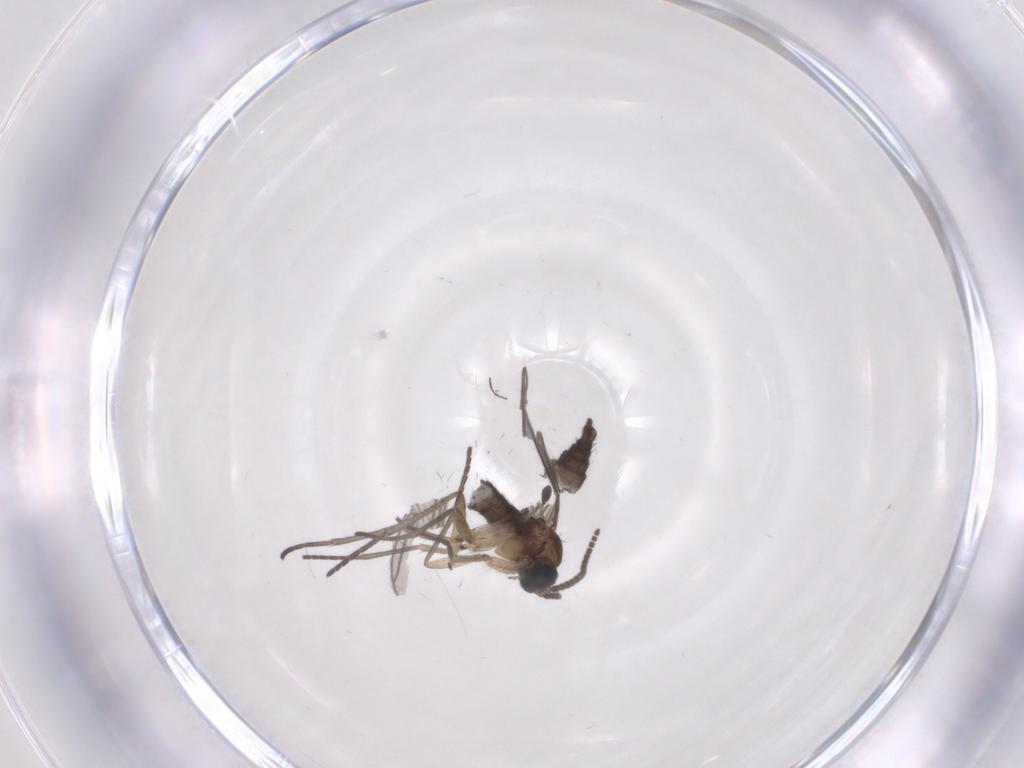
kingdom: Animalia
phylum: Arthropoda
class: Insecta
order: Diptera
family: Sciaridae
